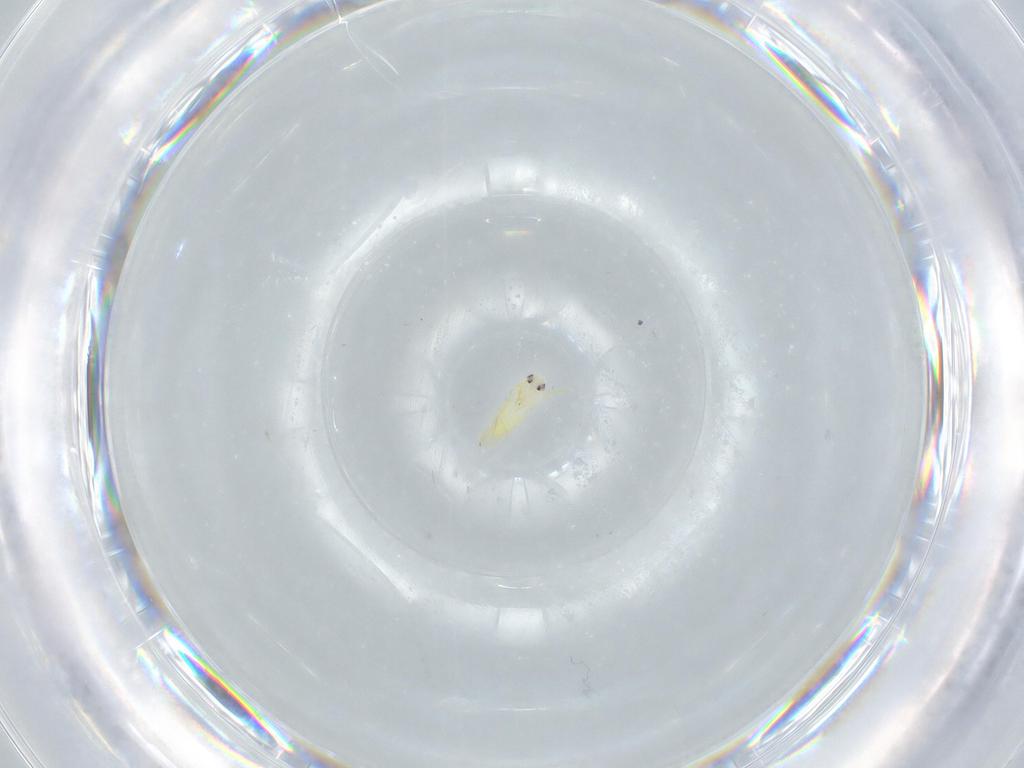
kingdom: Animalia
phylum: Arthropoda
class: Insecta
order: Hemiptera
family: Aleyrodidae
